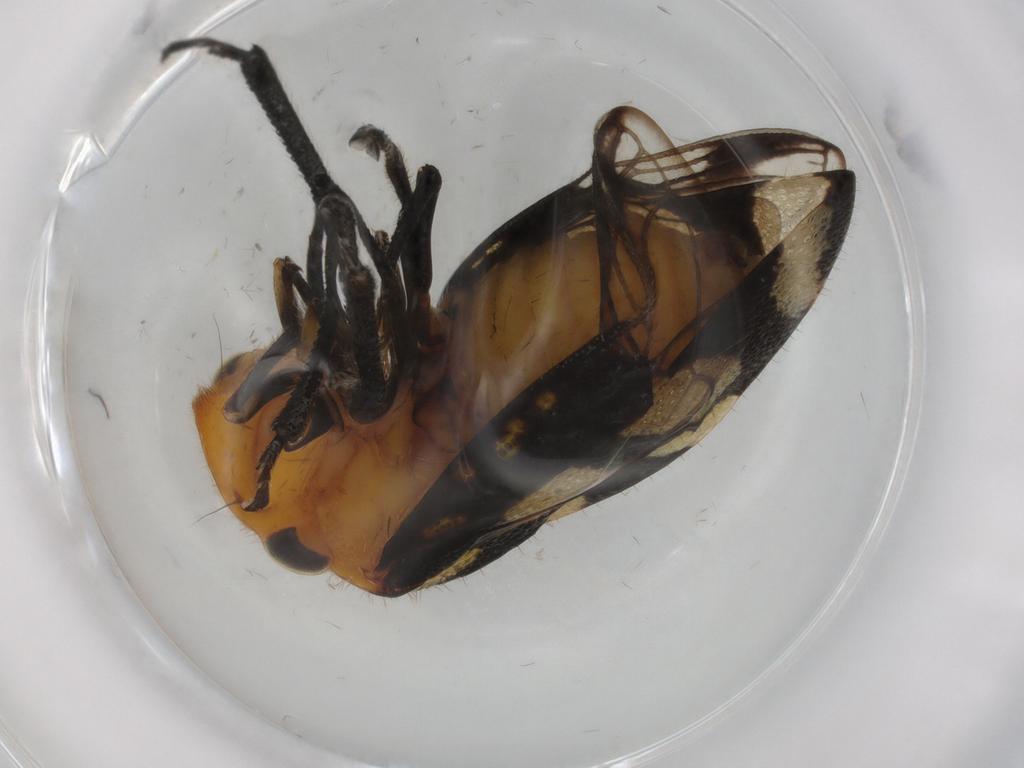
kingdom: Animalia
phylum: Arthropoda
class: Insecta
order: Hemiptera
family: Membracidae
